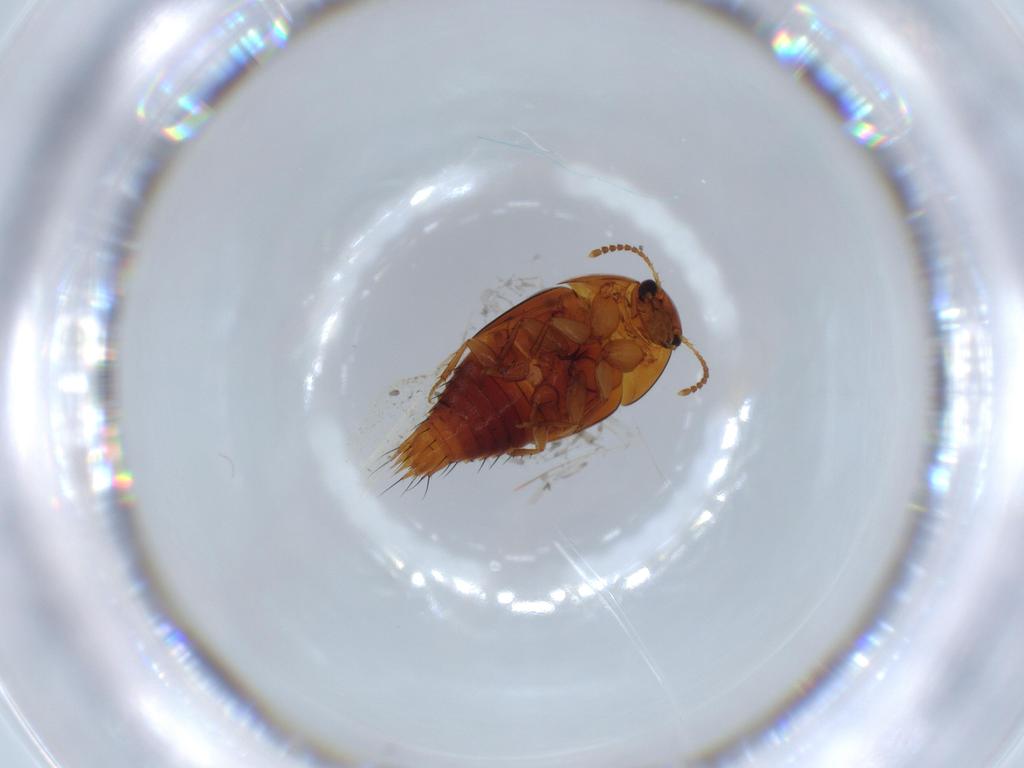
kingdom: Animalia
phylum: Arthropoda
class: Insecta
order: Coleoptera
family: Staphylinidae
